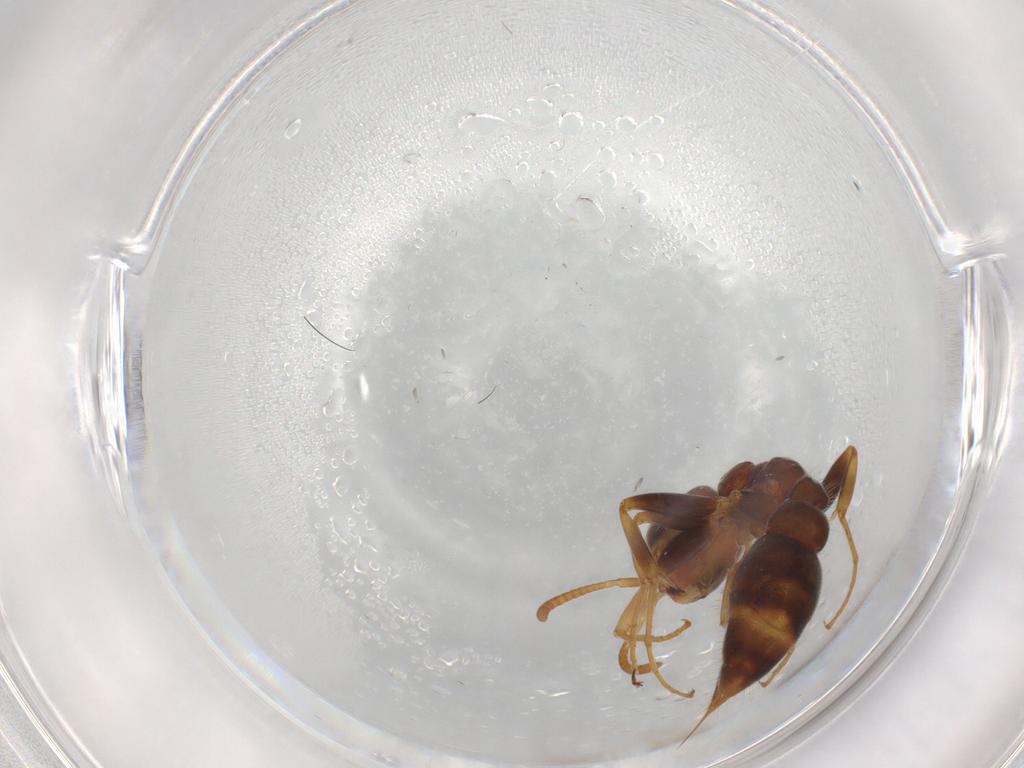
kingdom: Animalia
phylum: Arthropoda
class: Insecta
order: Hymenoptera
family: Formicidae
